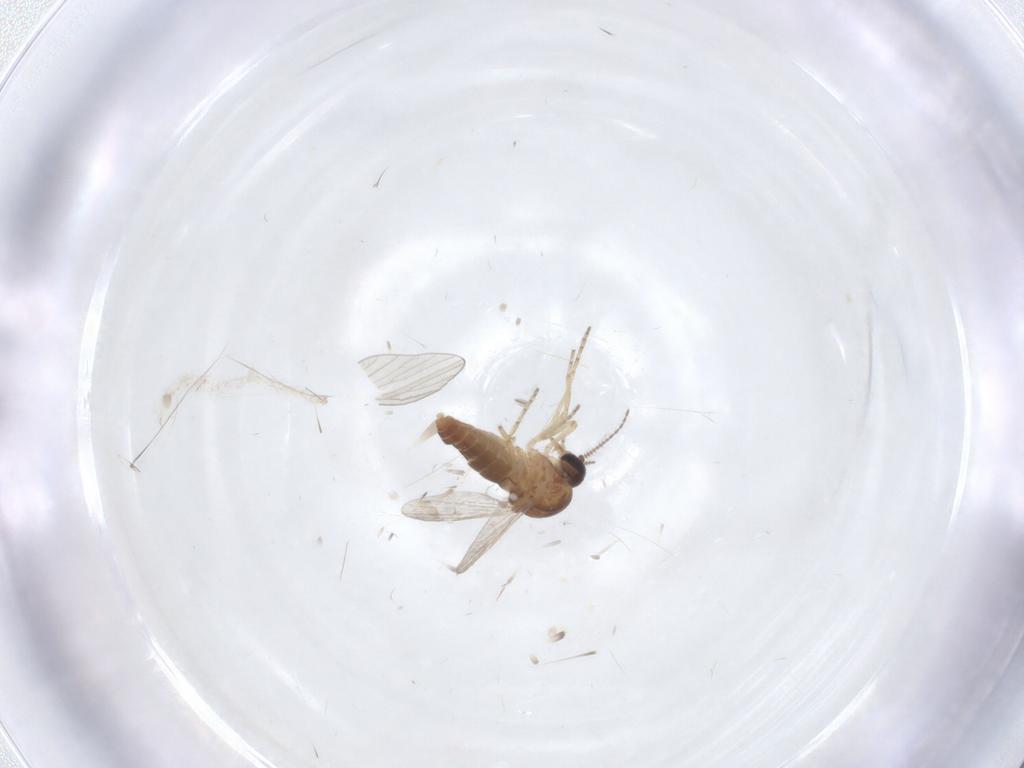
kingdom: Animalia
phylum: Arthropoda
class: Insecta
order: Diptera
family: Ceratopogonidae
